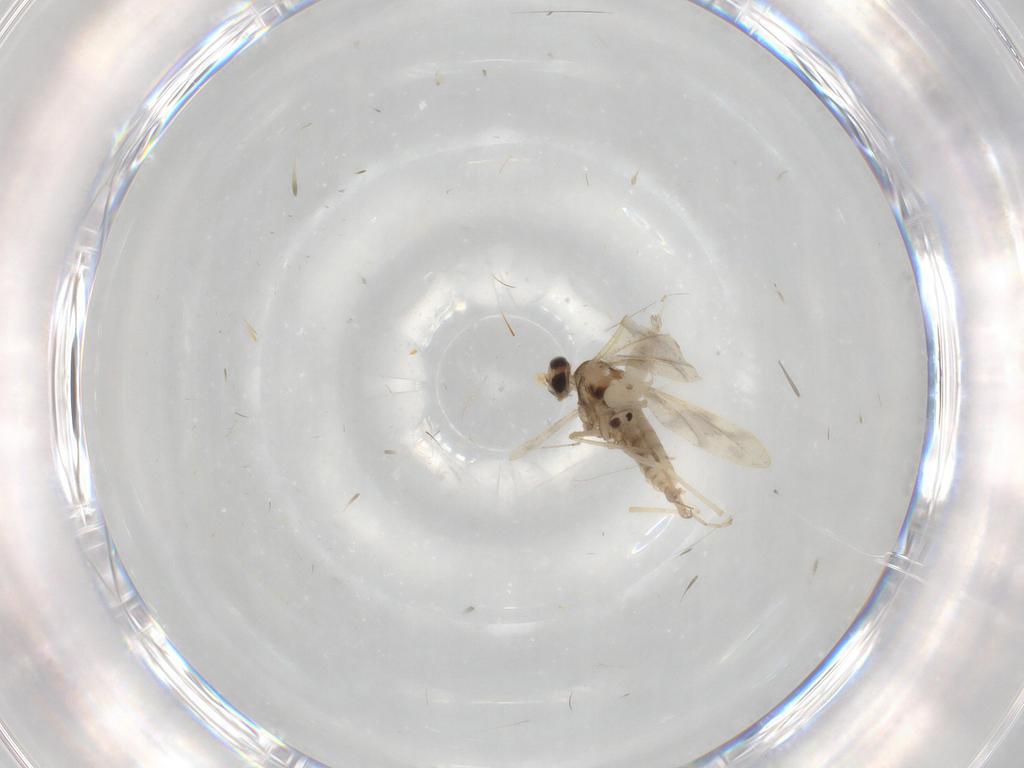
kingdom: Animalia
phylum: Arthropoda
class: Insecta
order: Diptera
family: Cecidomyiidae
